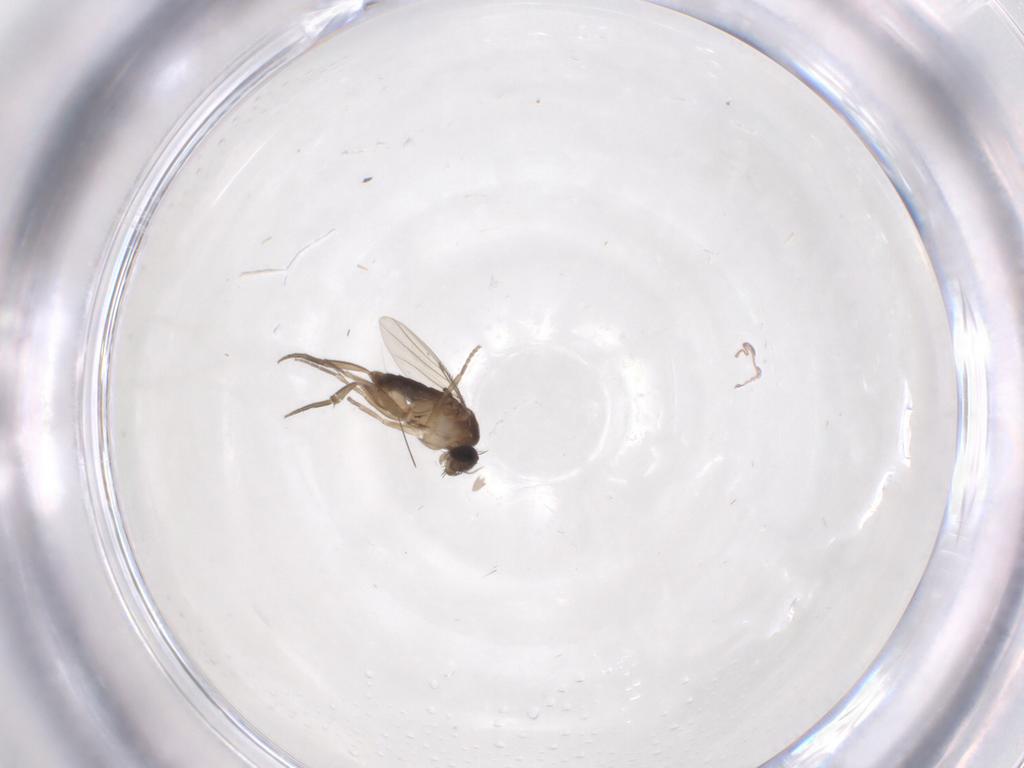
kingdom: Animalia
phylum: Arthropoda
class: Insecta
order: Diptera
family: Phoridae
